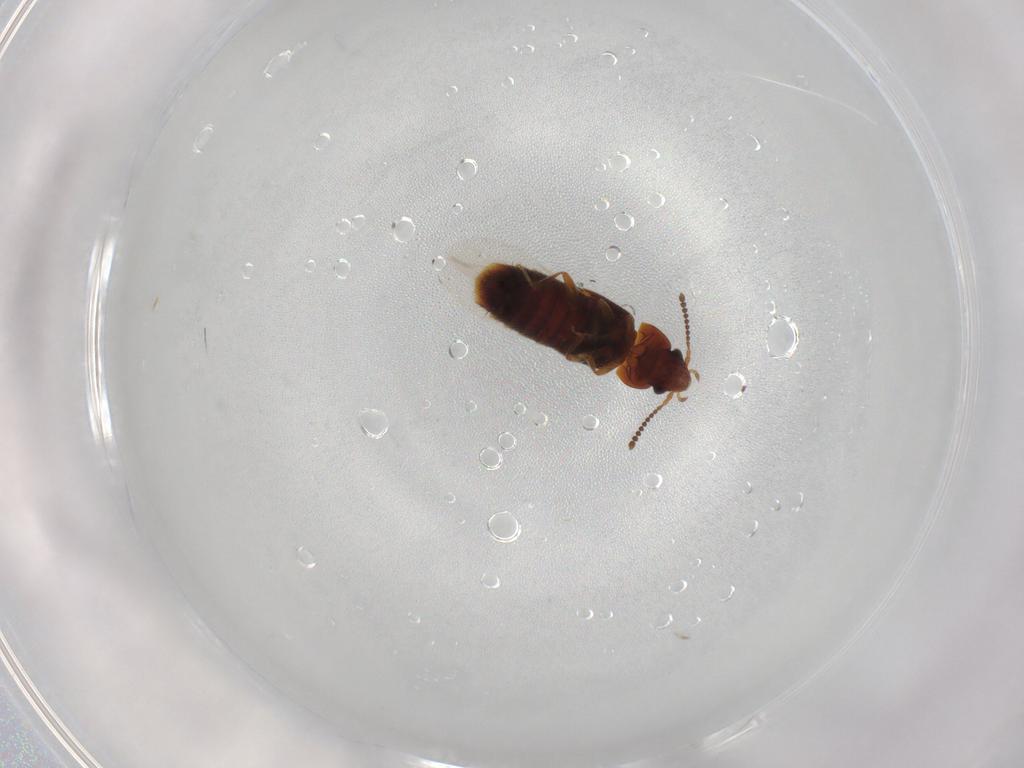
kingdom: Animalia
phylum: Arthropoda
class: Insecta
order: Coleoptera
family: Staphylinidae
